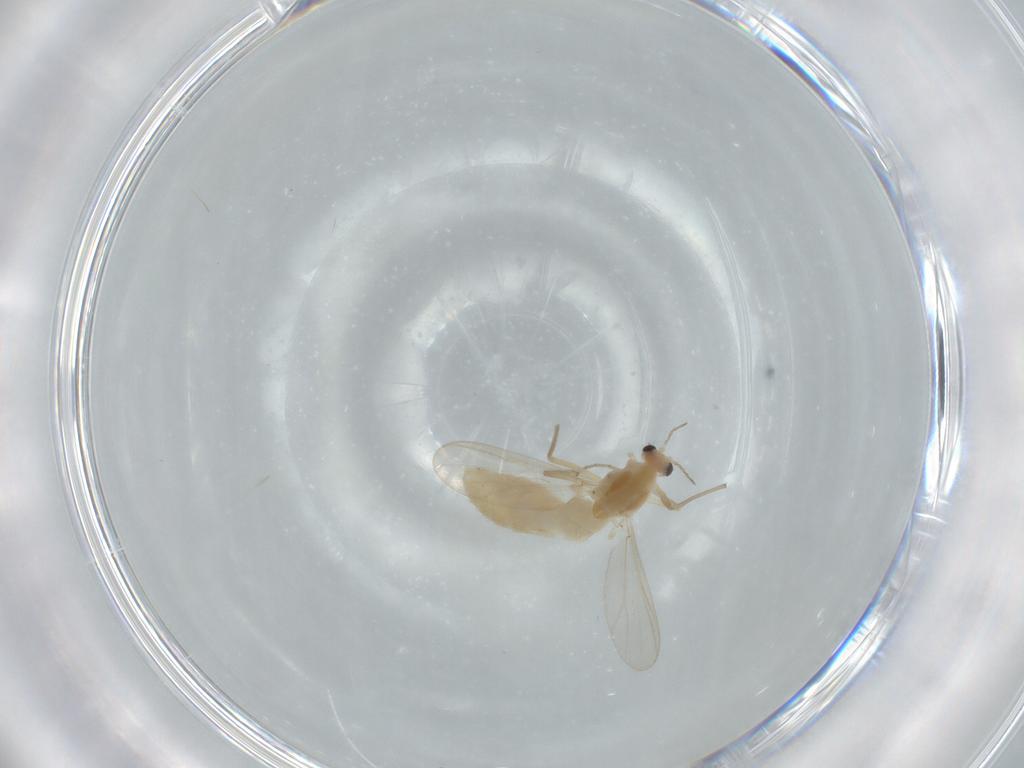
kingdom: Animalia
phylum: Arthropoda
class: Insecta
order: Diptera
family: Chironomidae
